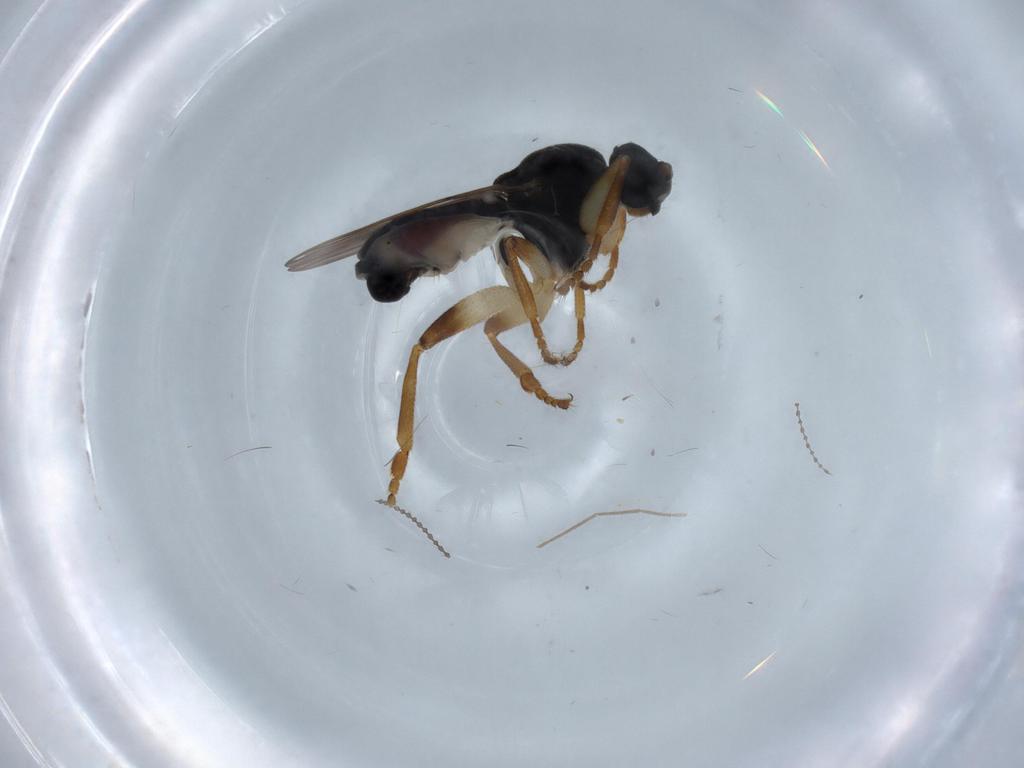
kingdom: Animalia
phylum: Arthropoda
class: Insecta
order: Diptera
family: Sphaeroceridae
